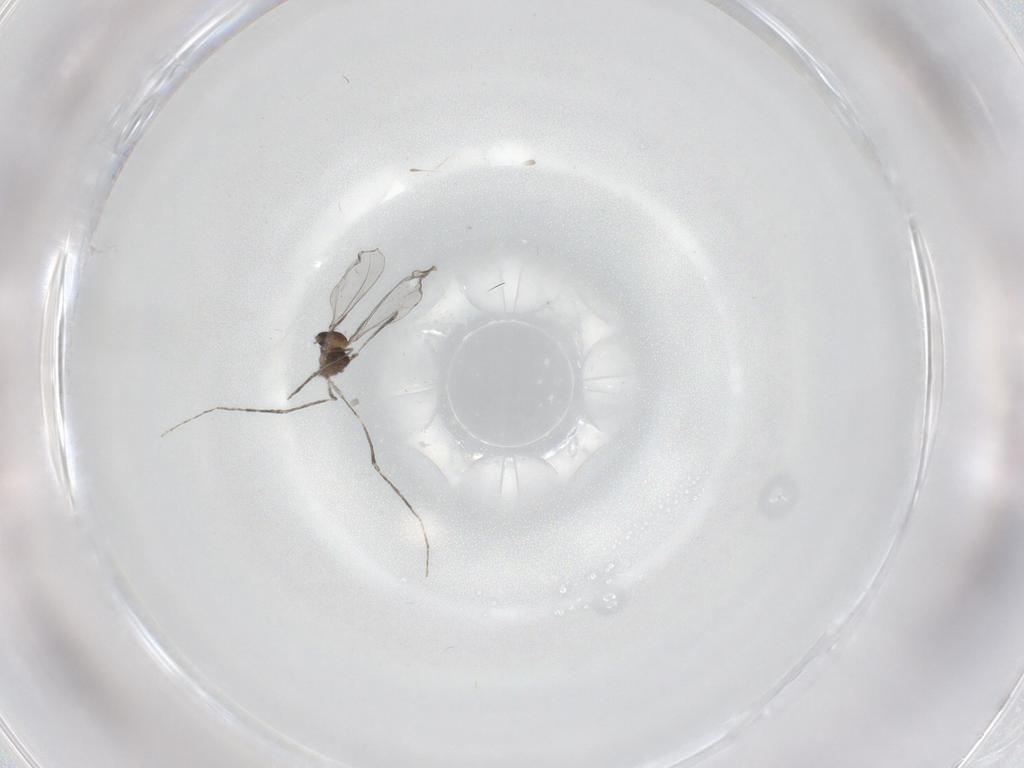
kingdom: Animalia
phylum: Arthropoda
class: Insecta
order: Diptera
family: Cecidomyiidae
